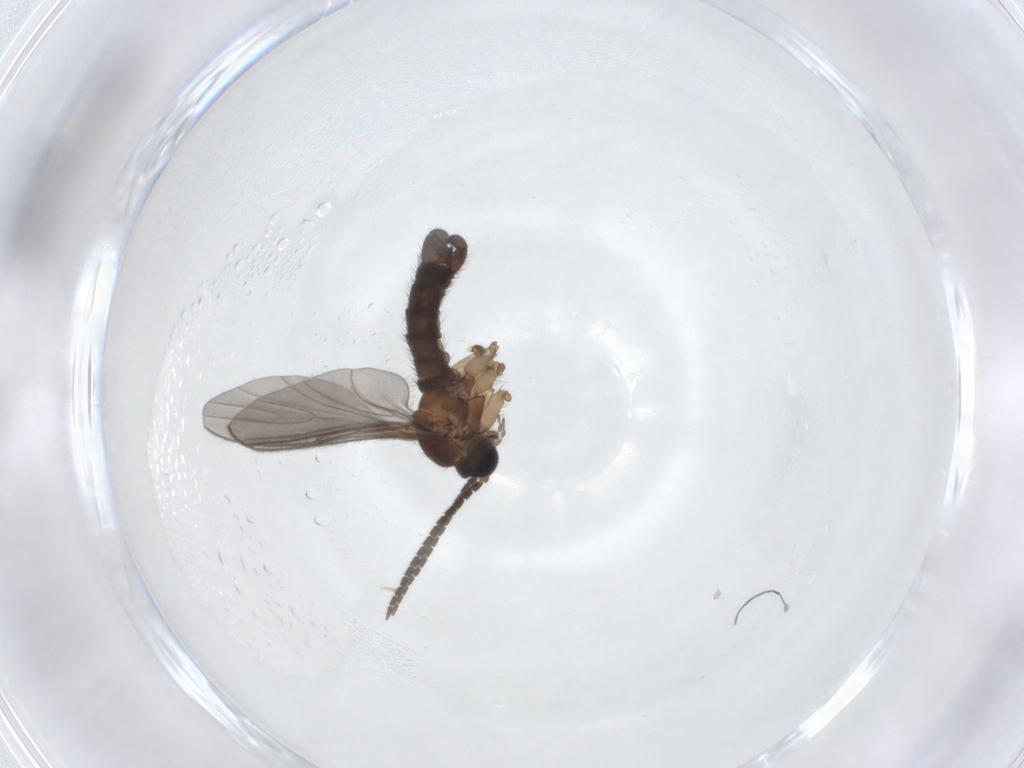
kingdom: Animalia
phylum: Arthropoda
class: Insecta
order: Diptera
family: Sciaridae
